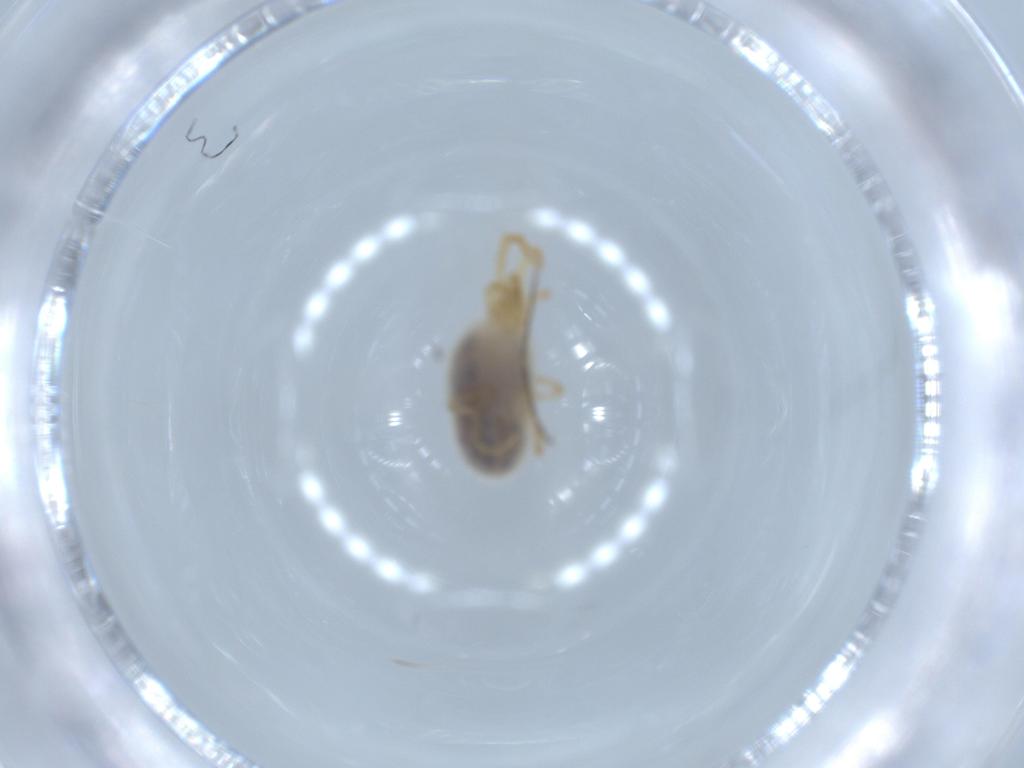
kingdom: Animalia
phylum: Arthropoda
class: Arachnida
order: Trombidiformes
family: Trombidiidae
